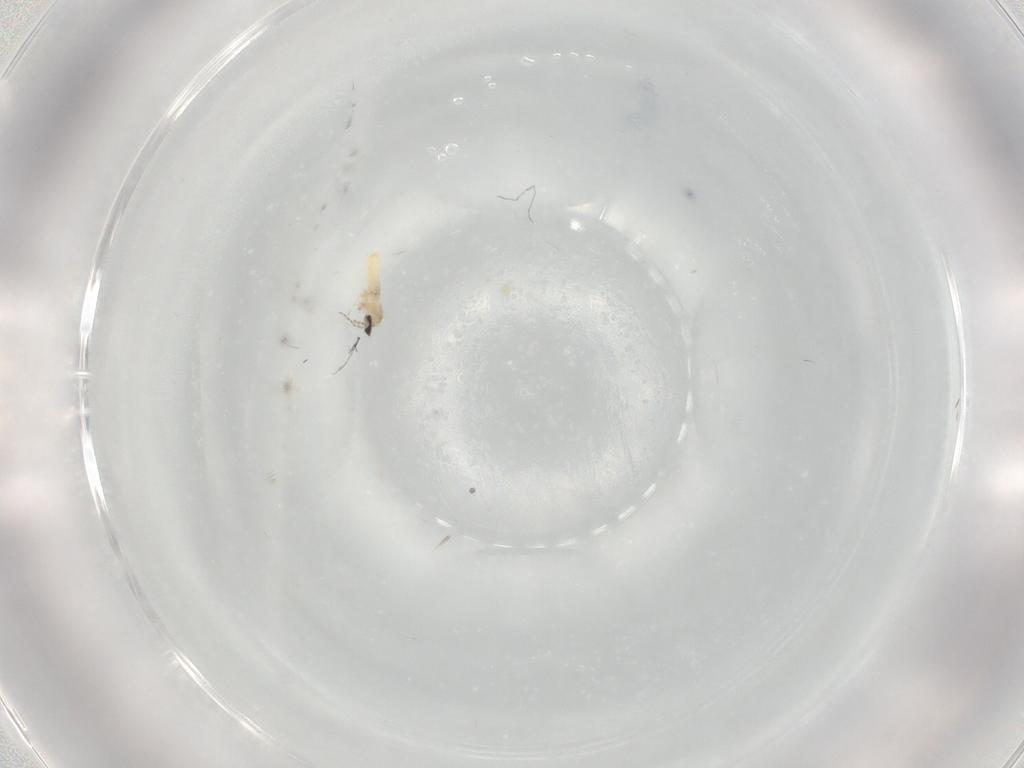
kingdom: Animalia
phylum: Arthropoda
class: Insecta
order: Diptera
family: Cecidomyiidae
